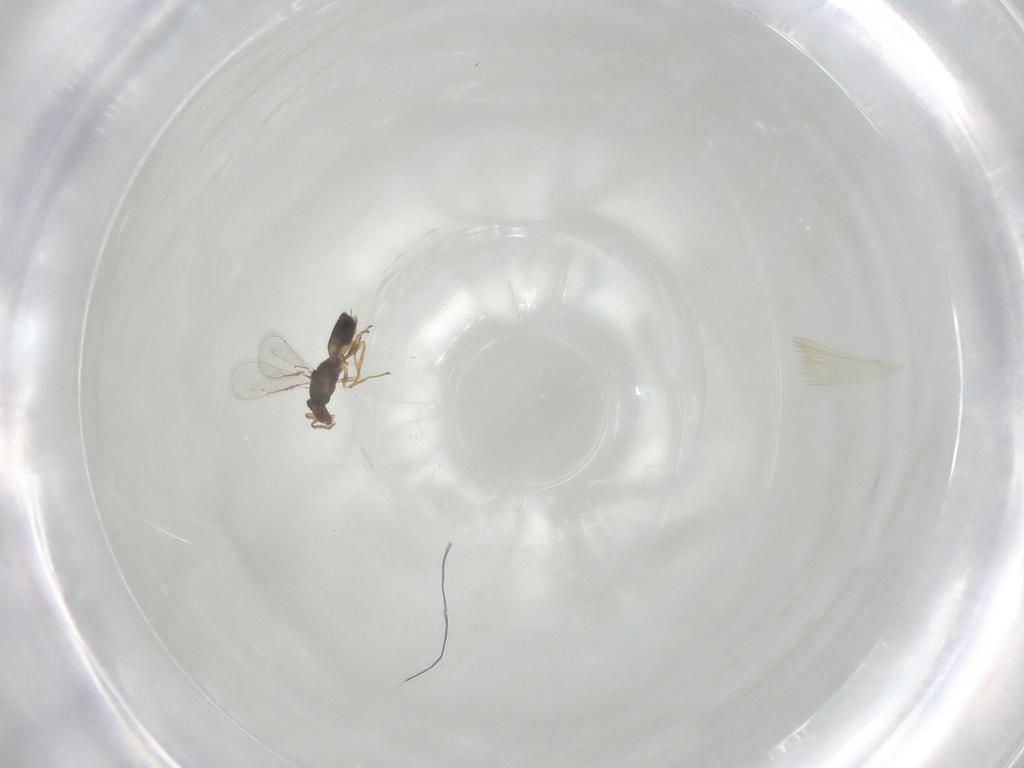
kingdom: Animalia
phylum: Arthropoda
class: Insecta
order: Hymenoptera
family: Eulophidae
